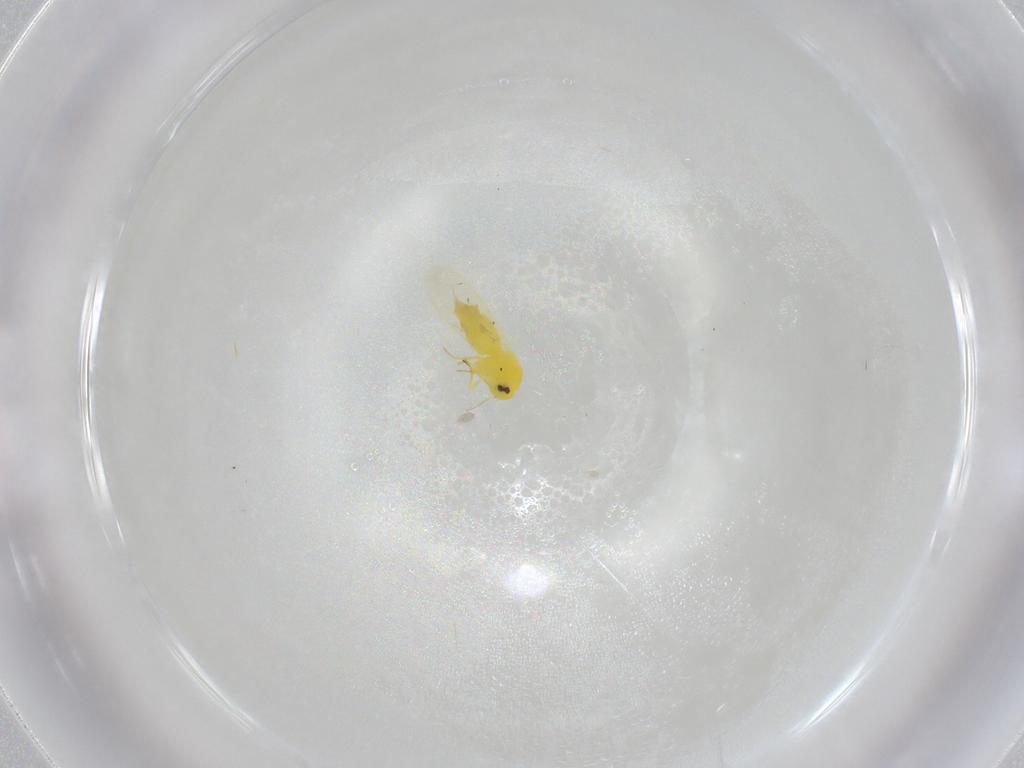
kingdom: Animalia
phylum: Arthropoda
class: Insecta
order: Hemiptera
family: Aleyrodidae
